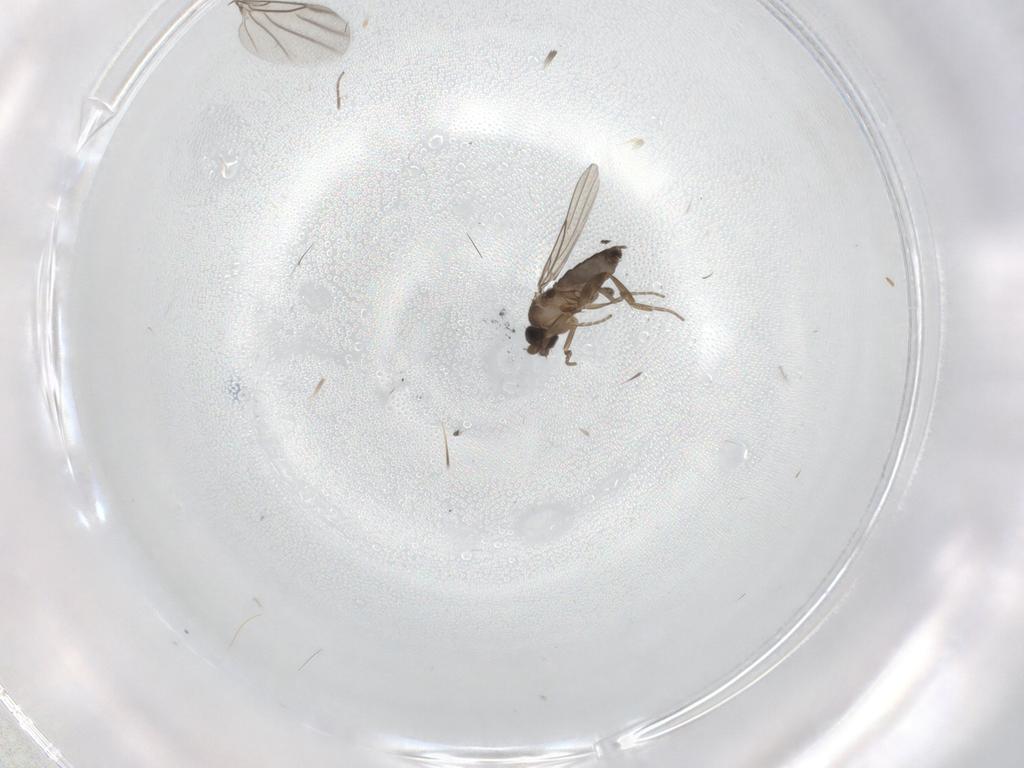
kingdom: Animalia
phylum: Arthropoda
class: Insecta
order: Diptera
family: Phoridae
